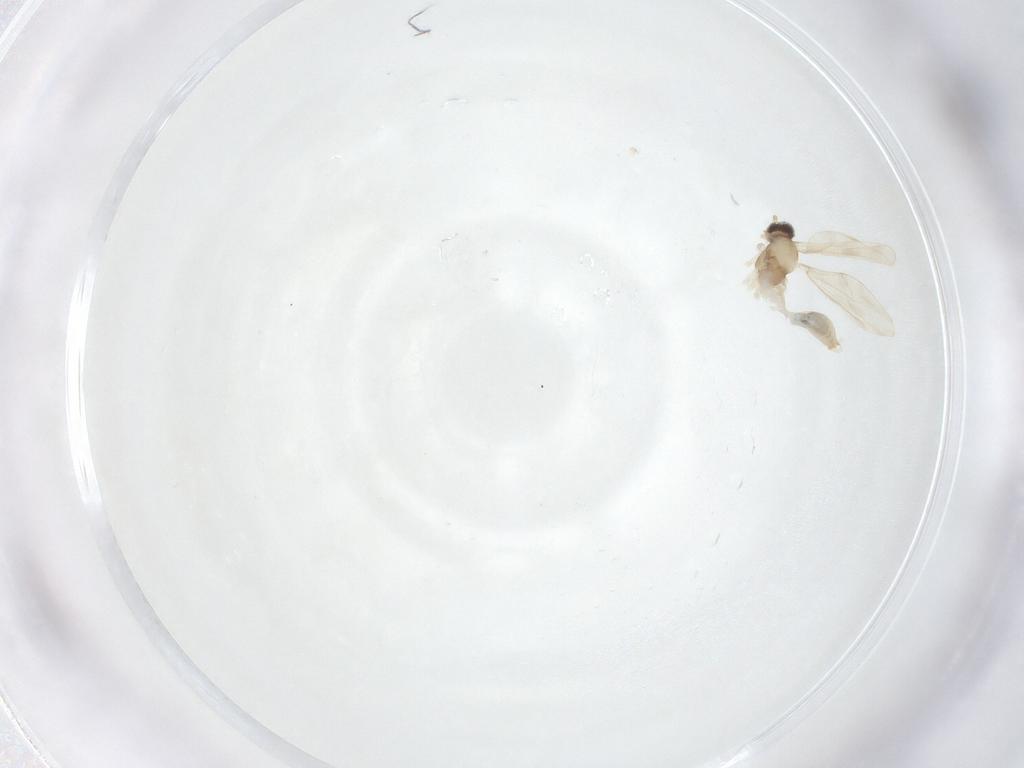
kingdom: Animalia
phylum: Arthropoda
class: Insecta
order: Diptera
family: Cecidomyiidae
